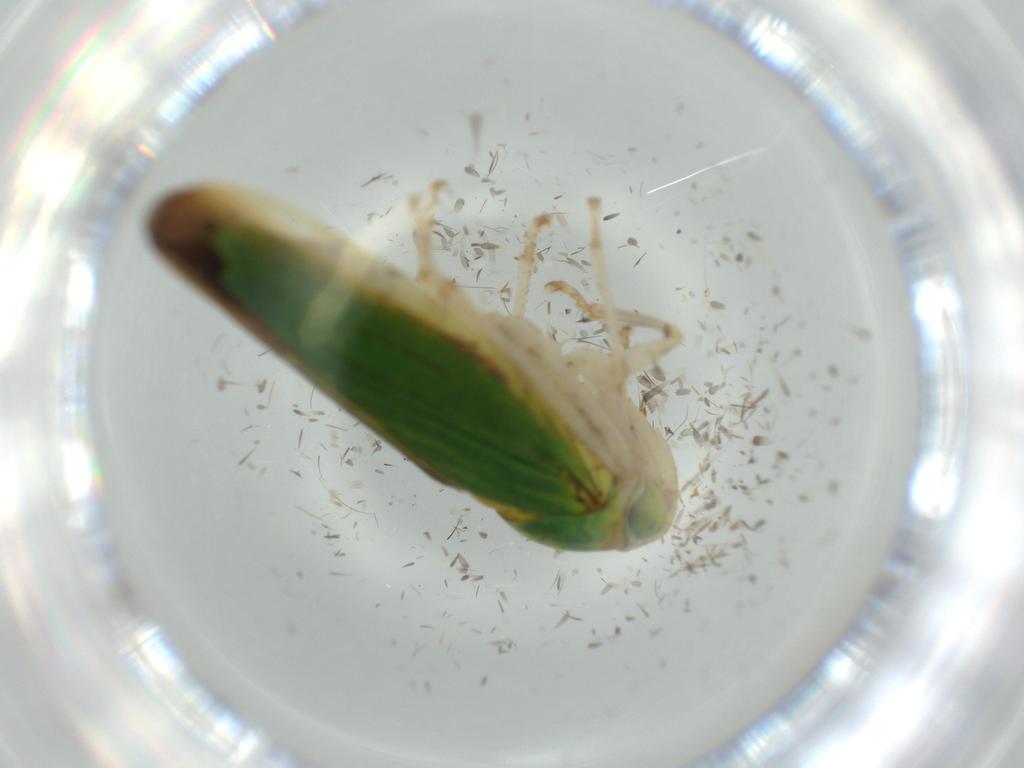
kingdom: Animalia
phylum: Arthropoda
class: Insecta
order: Hemiptera
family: Cicadellidae
